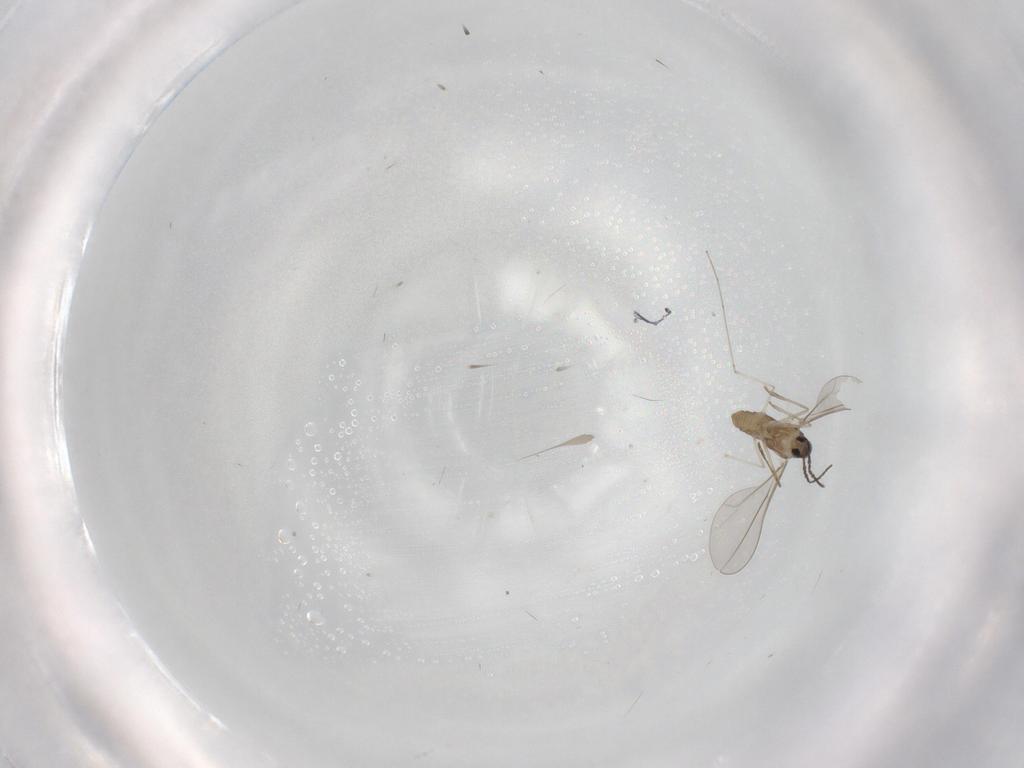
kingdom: Animalia
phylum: Arthropoda
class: Insecta
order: Diptera
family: Cecidomyiidae
